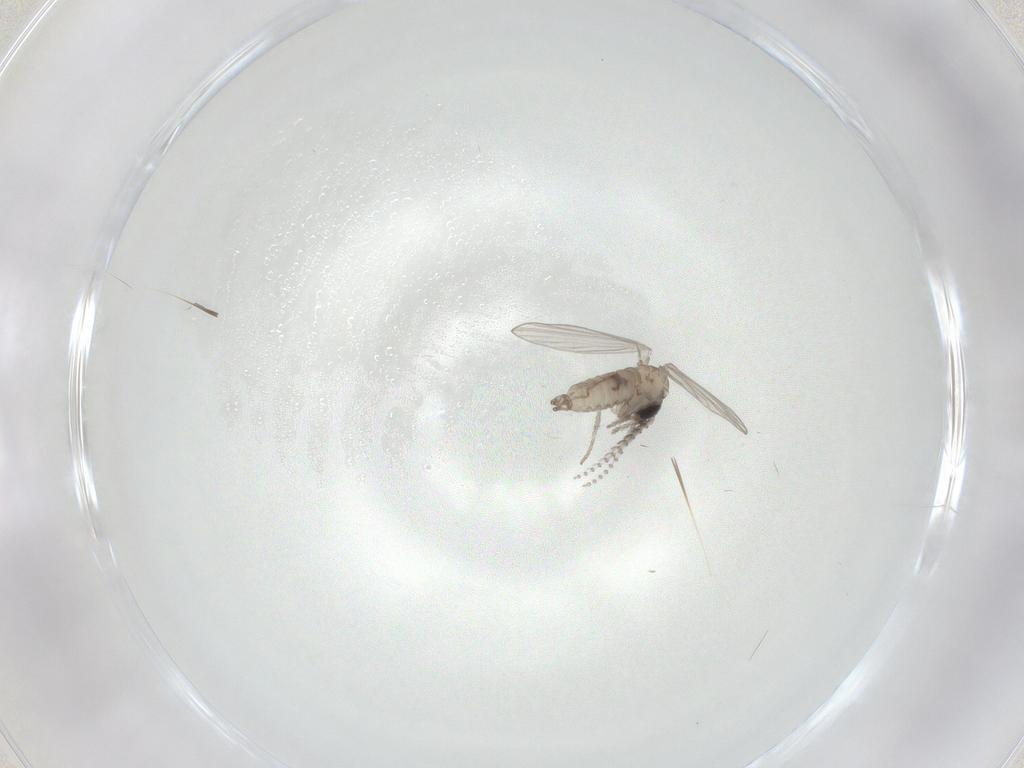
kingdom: Animalia
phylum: Arthropoda
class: Insecta
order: Diptera
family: Psychodidae
